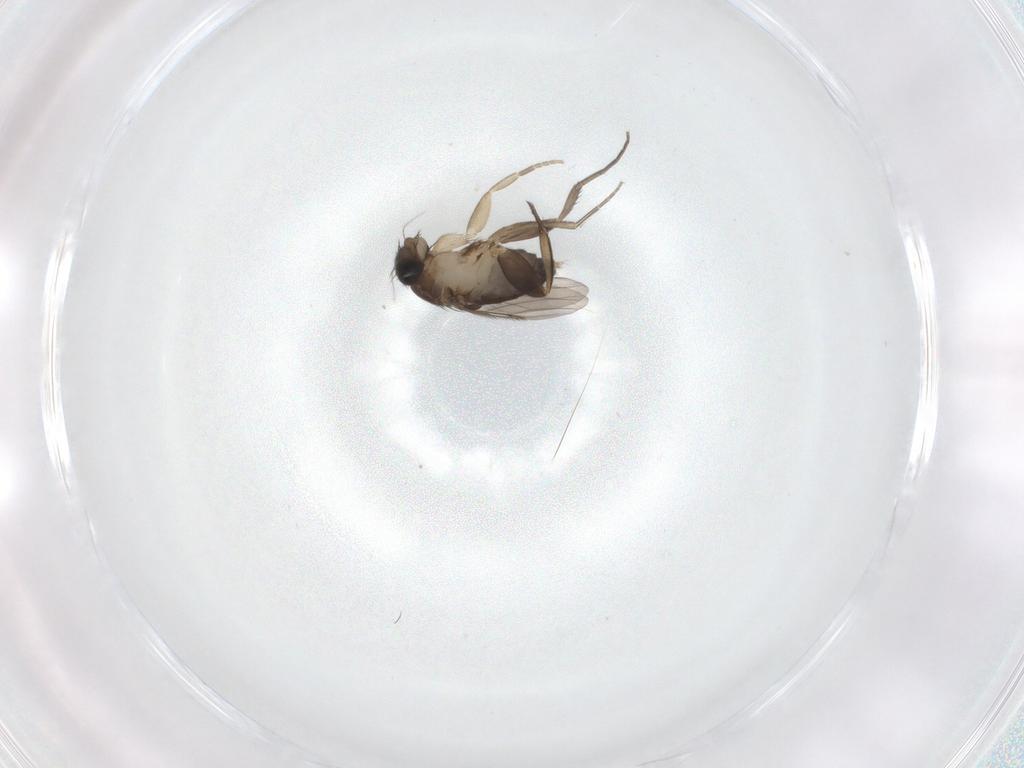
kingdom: Animalia
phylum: Arthropoda
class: Insecta
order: Diptera
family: Phoridae
